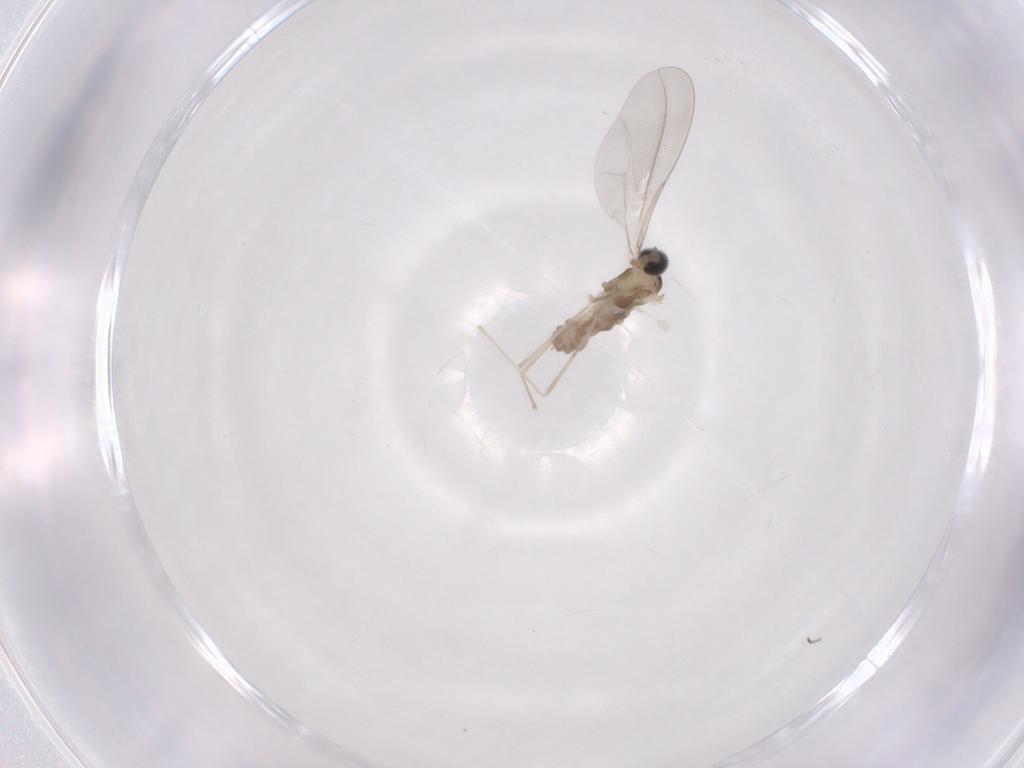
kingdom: Animalia
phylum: Arthropoda
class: Insecta
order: Diptera
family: Cecidomyiidae
